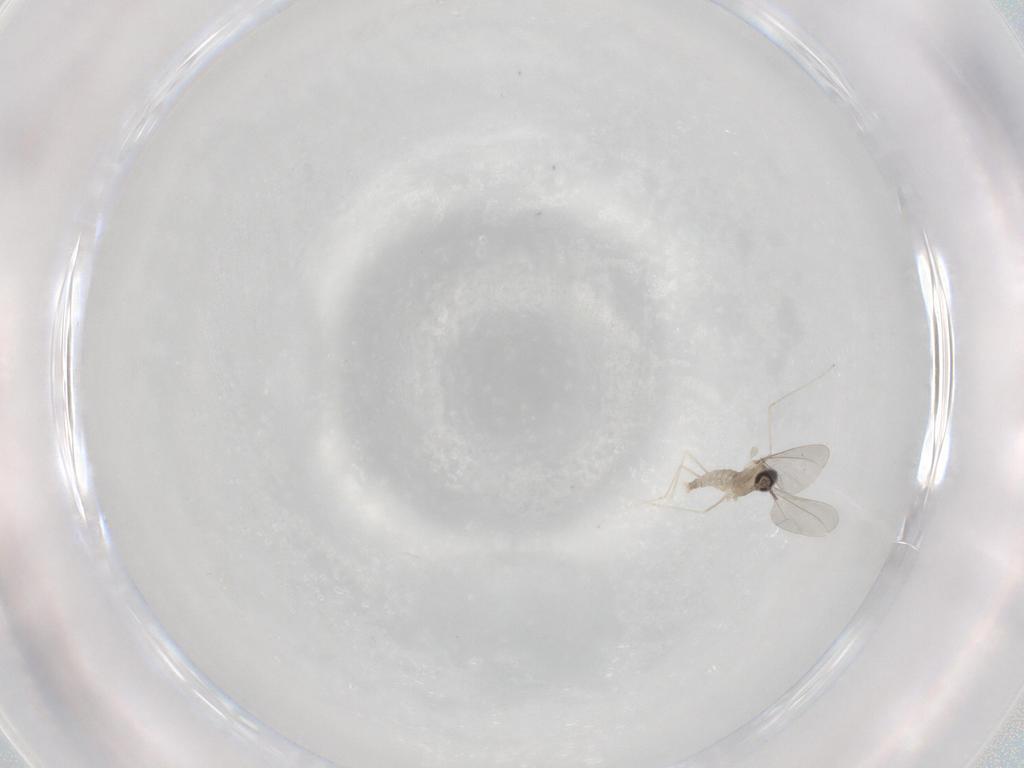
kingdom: Animalia
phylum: Arthropoda
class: Insecta
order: Diptera
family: Cecidomyiidae
